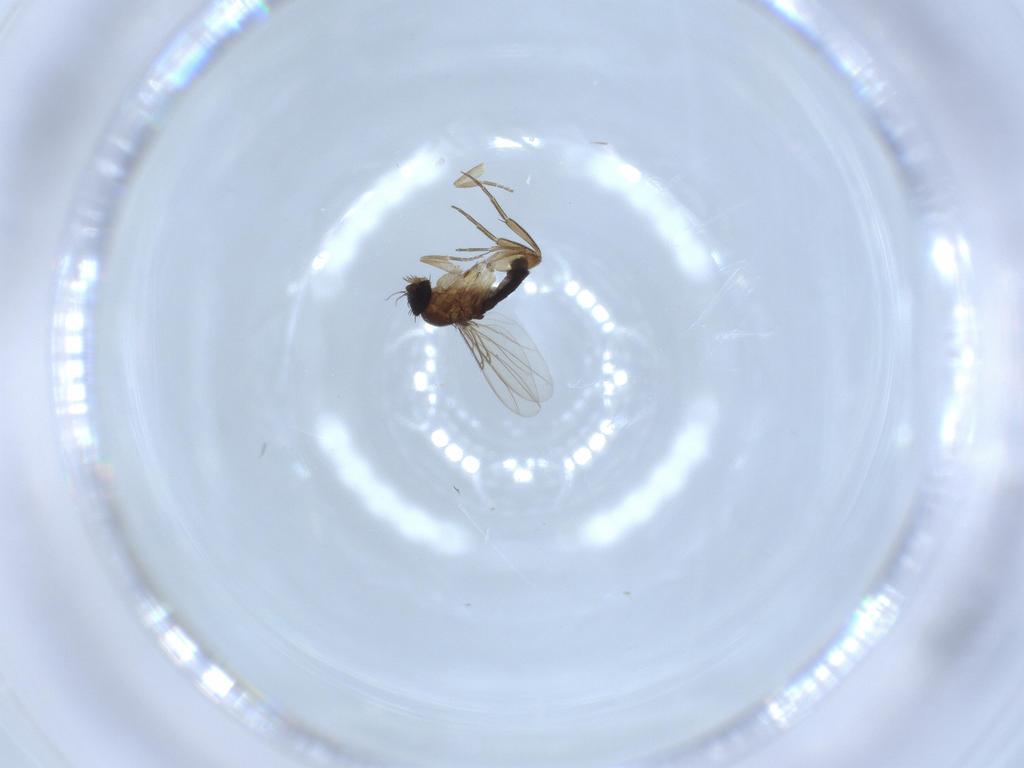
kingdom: Animalia
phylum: Arthropoda
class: Insecta
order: Diptera
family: Phoridae
